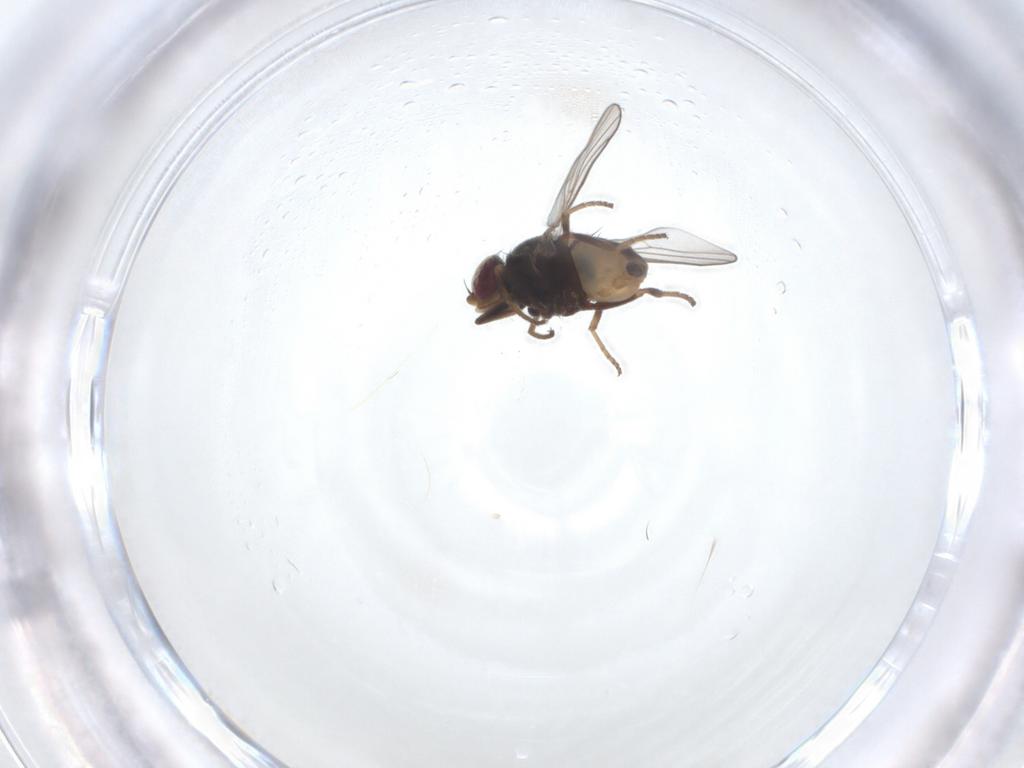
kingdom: Animalia
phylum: Arthropoda
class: Insecta
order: Diptera
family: Chloropidae
